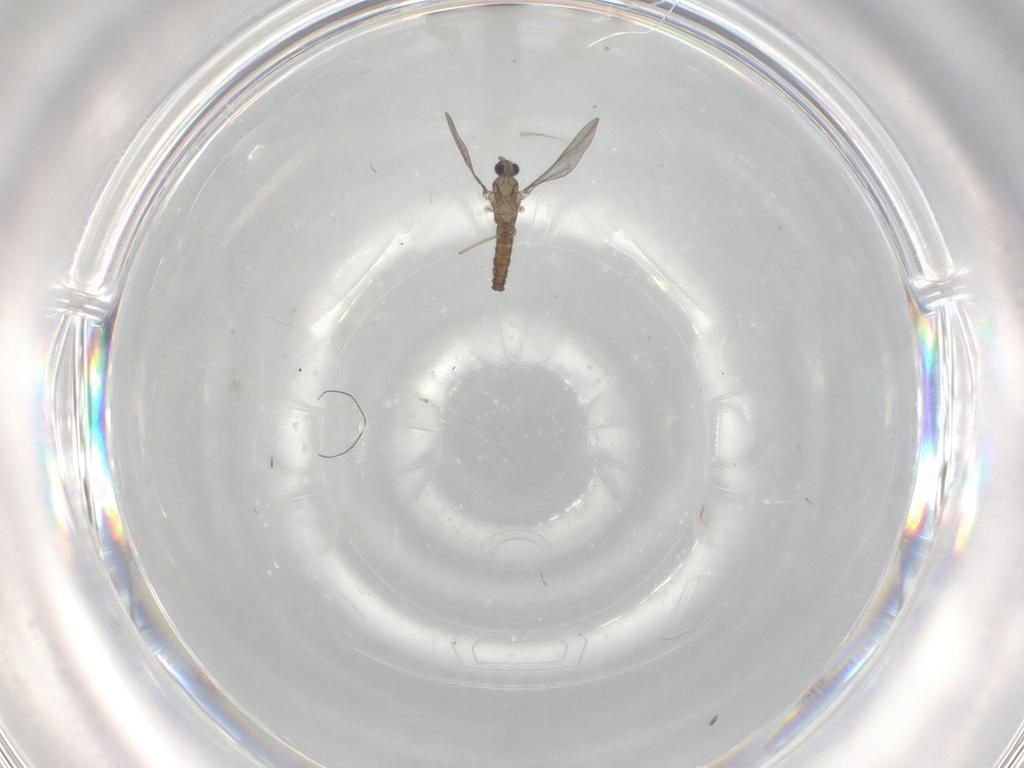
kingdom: Animalia
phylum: Arthropoda
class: Insecta
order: Diptera
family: Cecidomyiidae
